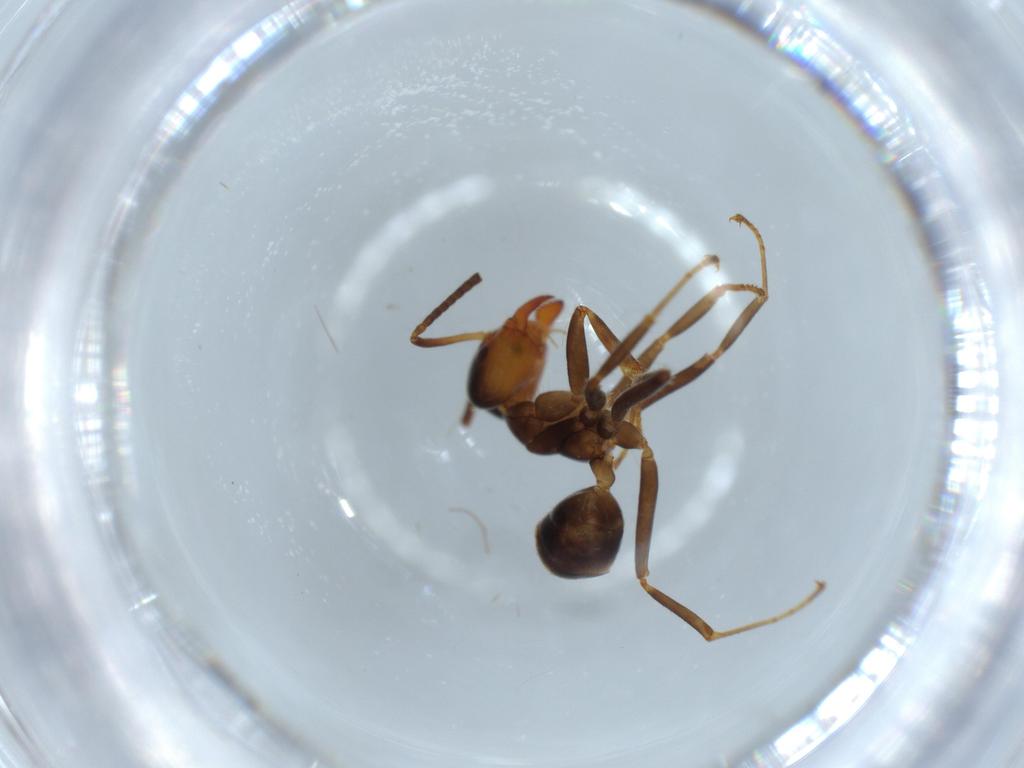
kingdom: Animalia
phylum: Arthropoda
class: Insecta
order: Hymenoptera
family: Formicidae
